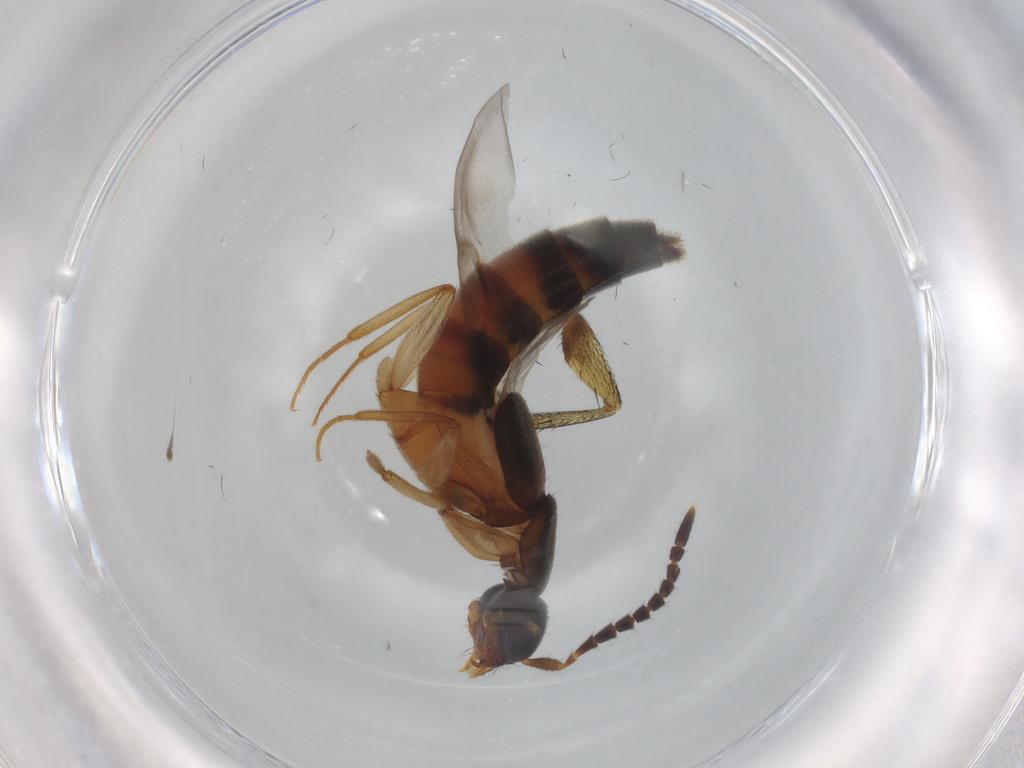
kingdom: Animalia
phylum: Arthropoda
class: Insecta
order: Coleoptera
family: Staphylinidae
